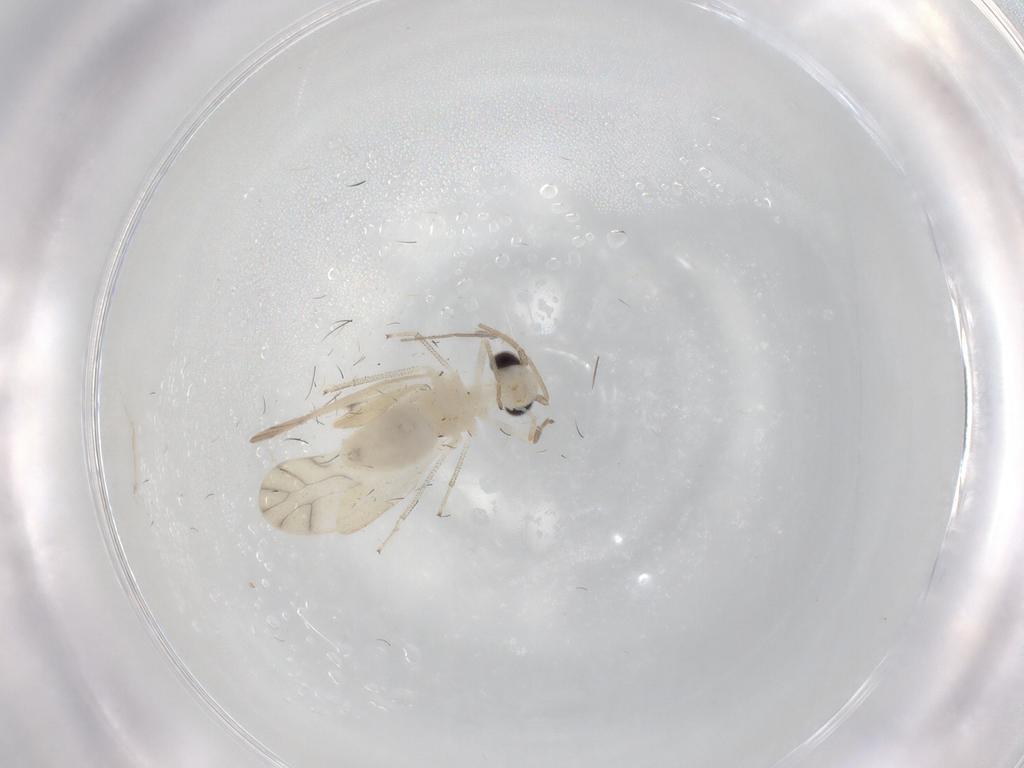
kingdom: Animalia
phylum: Arthropoda
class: Insecta
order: Psocodea
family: Caeciliusidae
